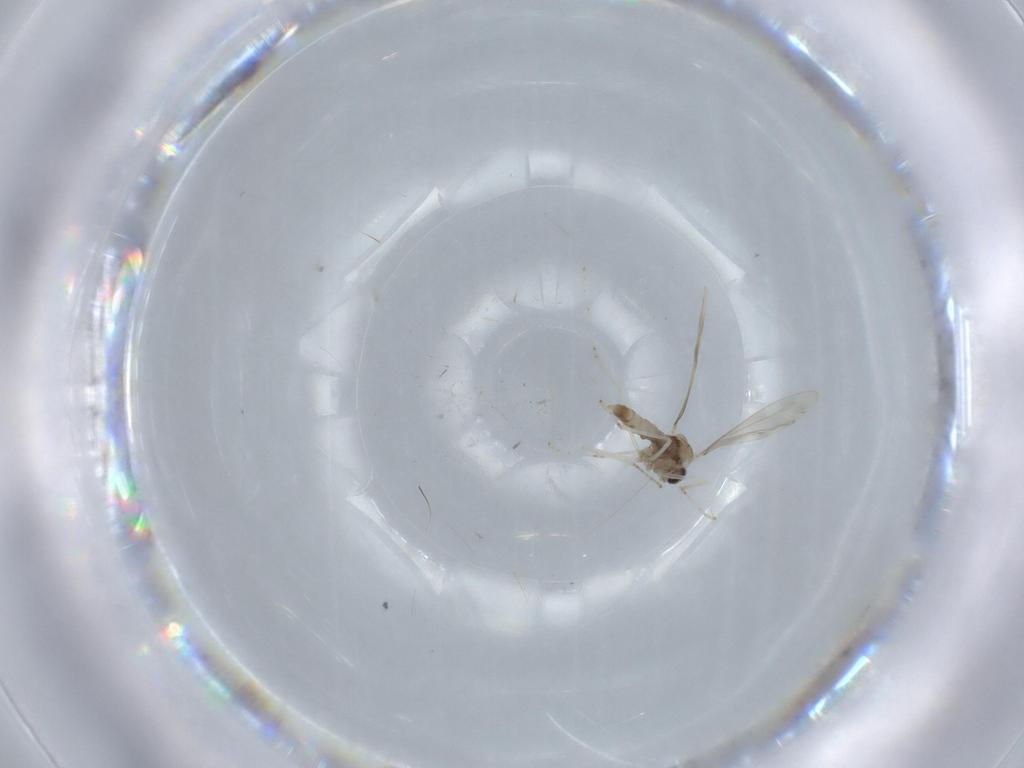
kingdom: Animalia
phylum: Arthropoda
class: Insecta
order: Diptera
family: Cecidomyiidae
